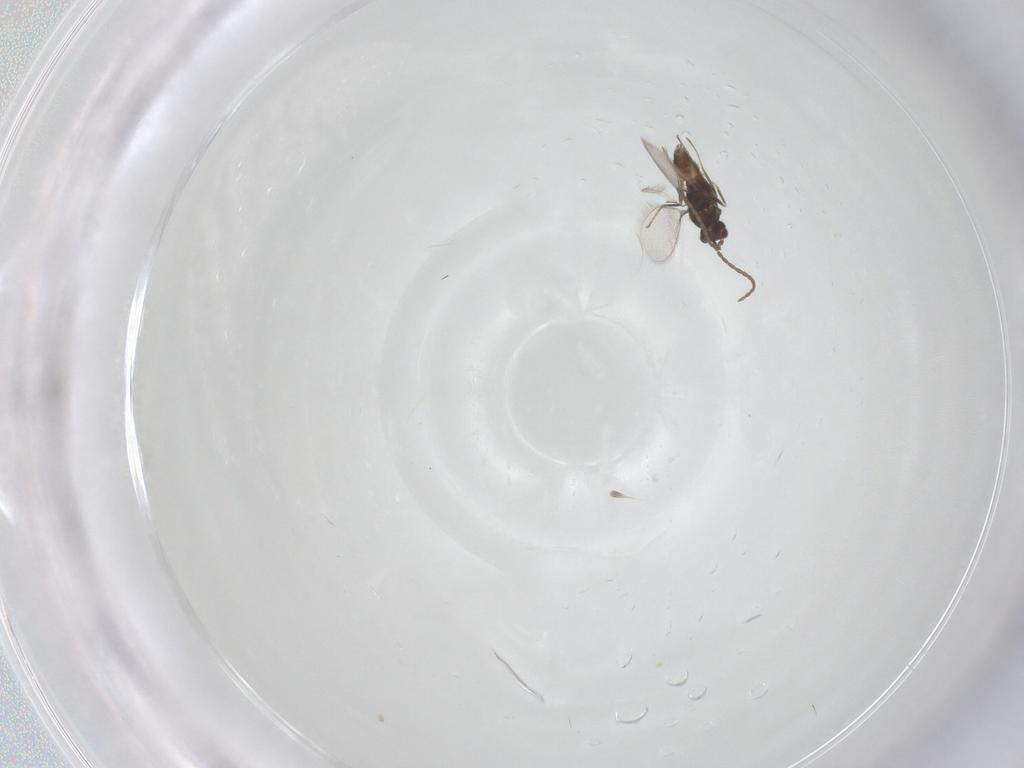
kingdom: Animalia
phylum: Arthropoda
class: Insecta
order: Hymenoptera
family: Mymaridae
